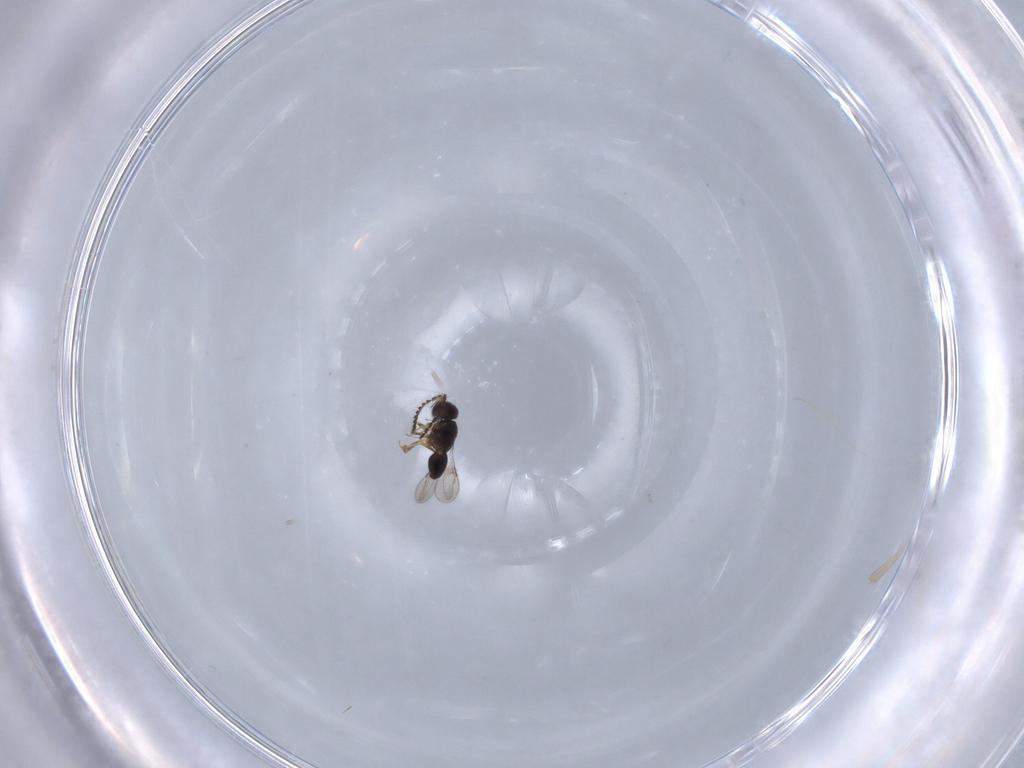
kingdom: Animalia
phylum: Arthropoda
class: Insecta
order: Hymenoptera
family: Ceraphronidae
